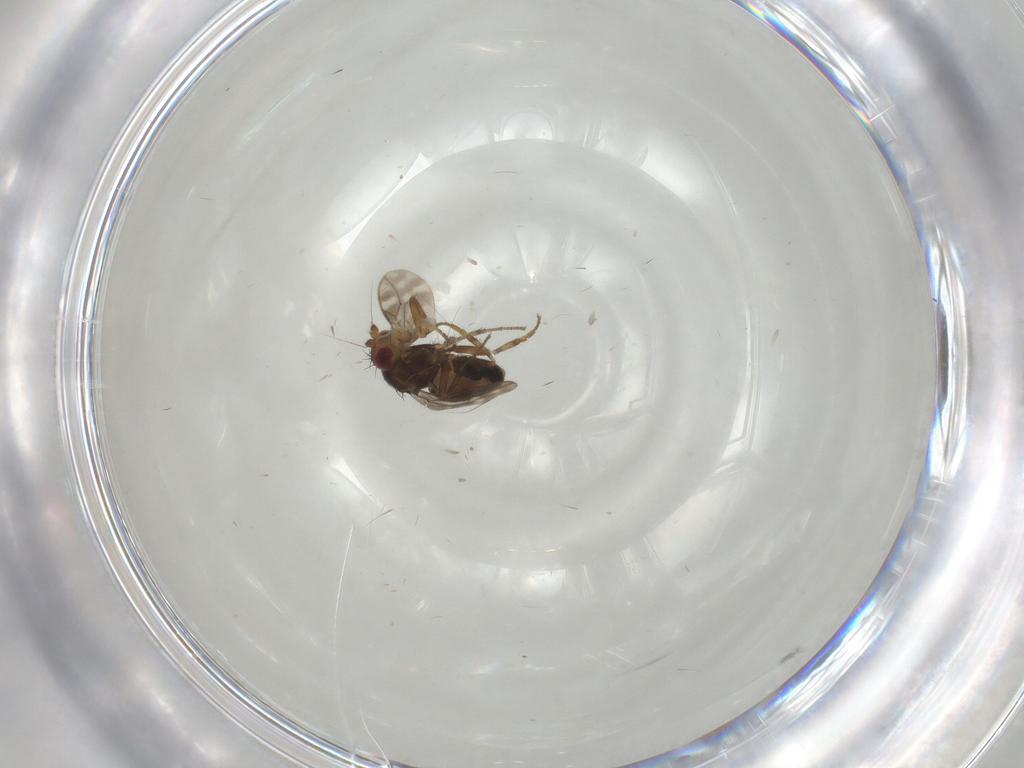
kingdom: Animalia
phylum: Arthropoda
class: Insecta
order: Diptera
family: Sphaeroceridae
